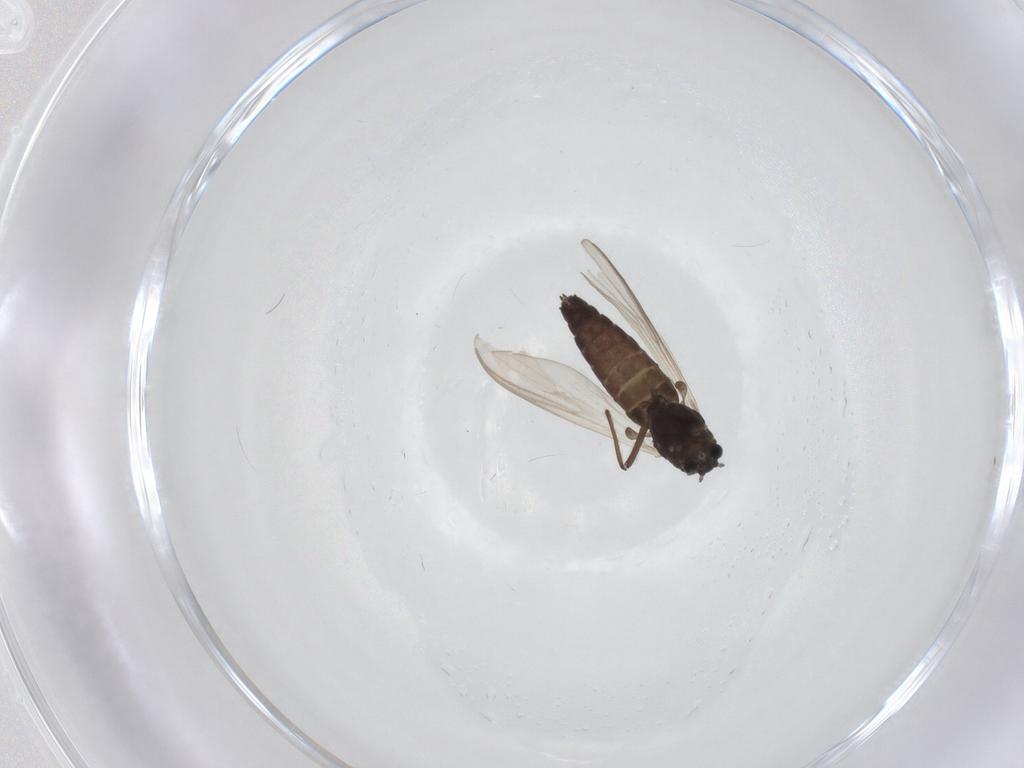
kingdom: Animalia
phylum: Arthropoda
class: Insecta
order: Diptera
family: Chironomidae
